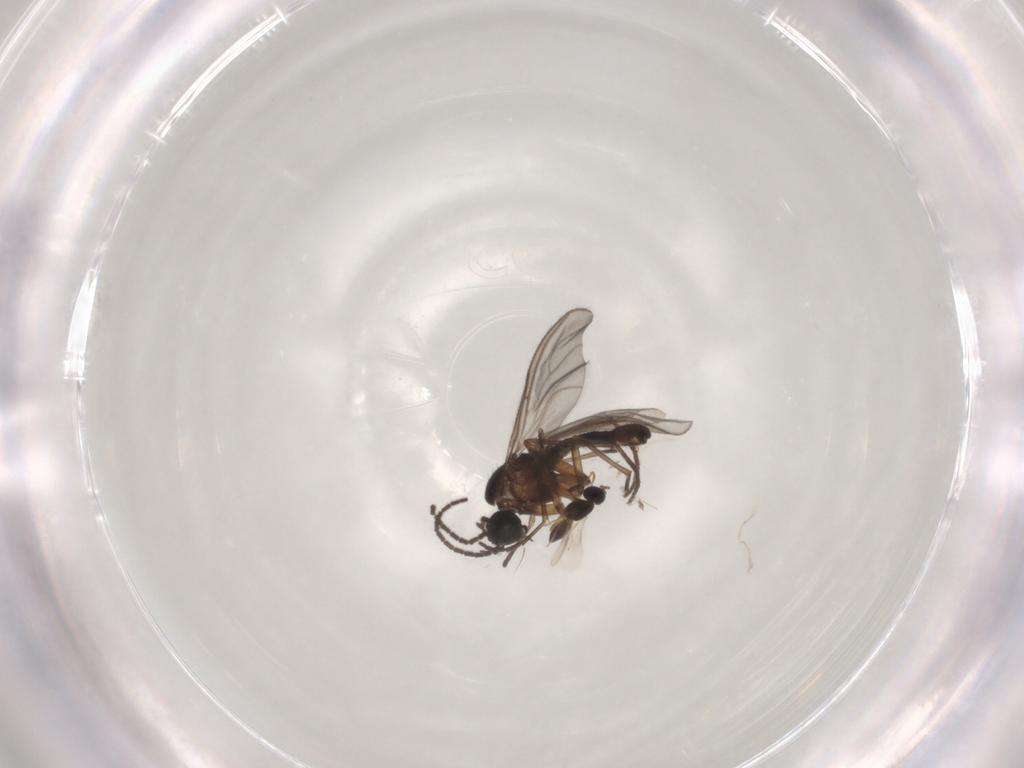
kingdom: Animalia
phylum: Arthropoda
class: Insecta
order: Diptera
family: Sciaridae
